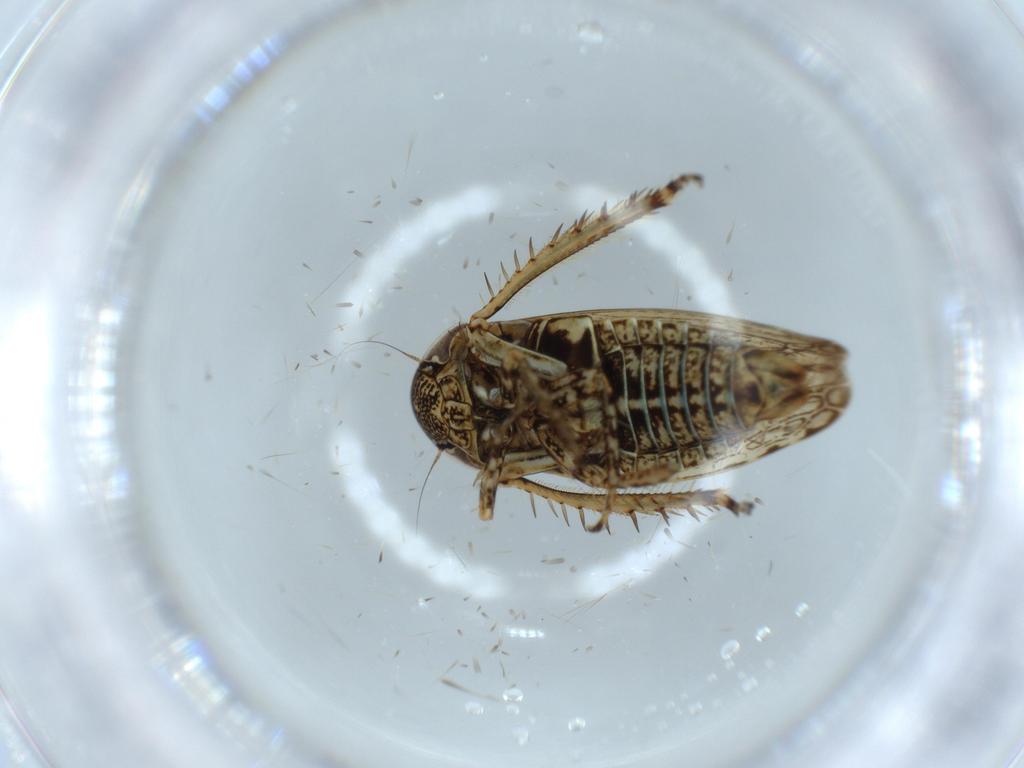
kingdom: Animalia
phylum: Arthropoda
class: Insecta
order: Hemiptera
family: Cicadellidae
